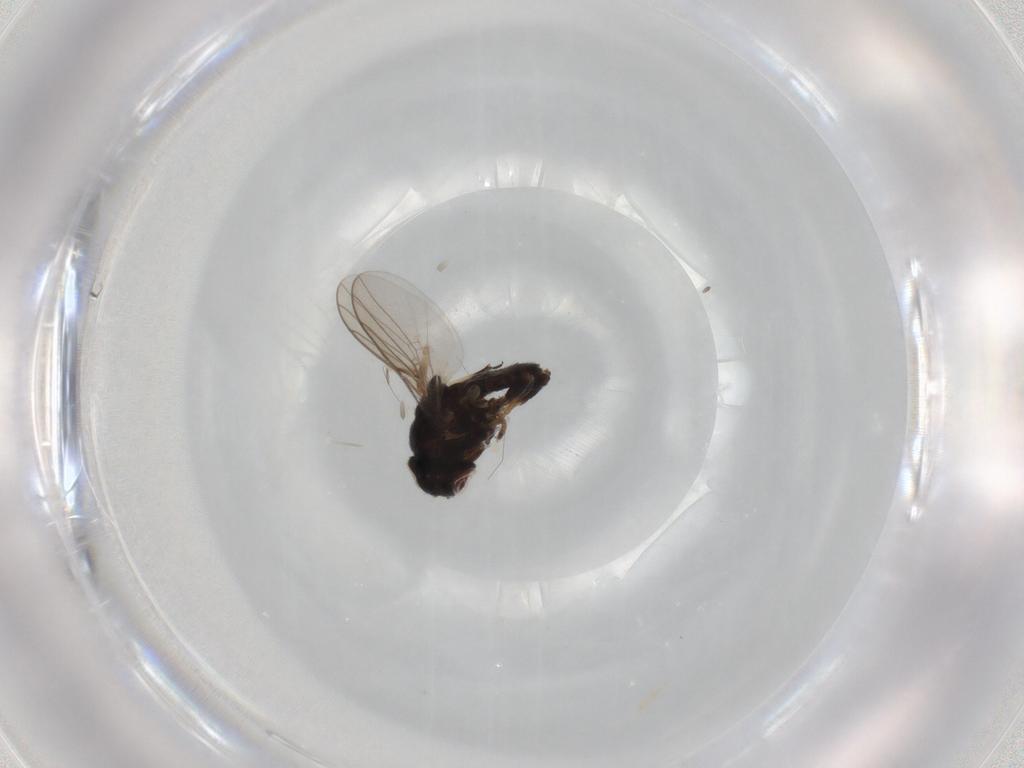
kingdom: Animalia
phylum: Arthropoda
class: Insecta
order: Diptera
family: Chloropidae
